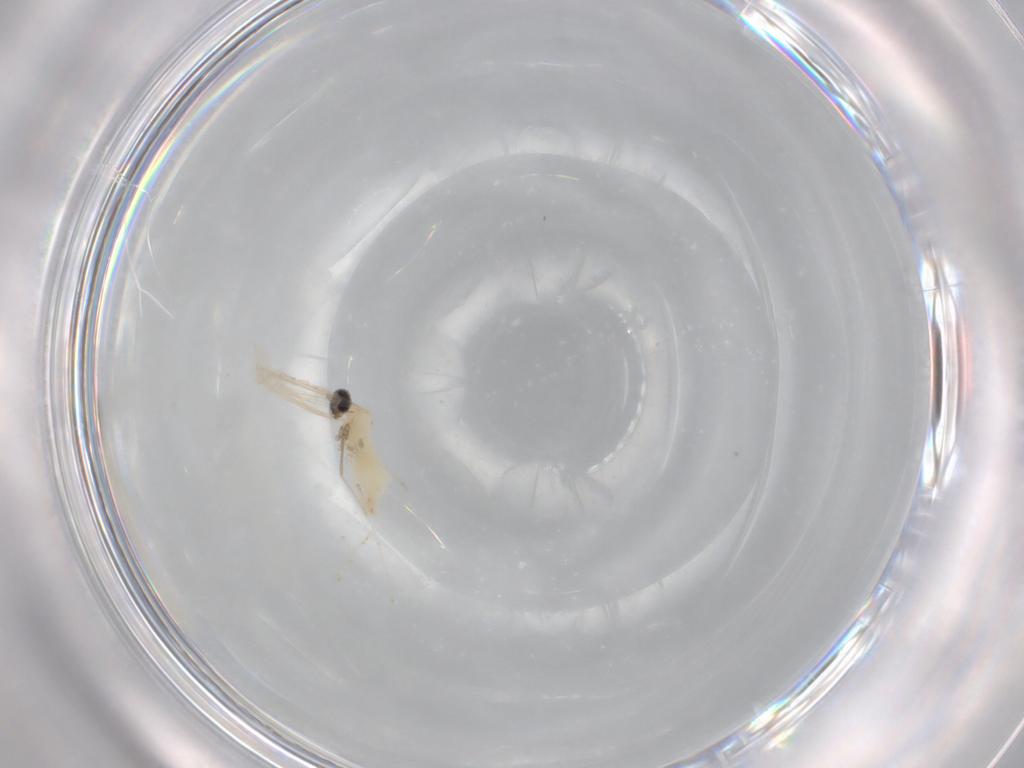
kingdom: Animalia
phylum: Arthropoda
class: Insecta
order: Diptera
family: Cecidomyiidae
